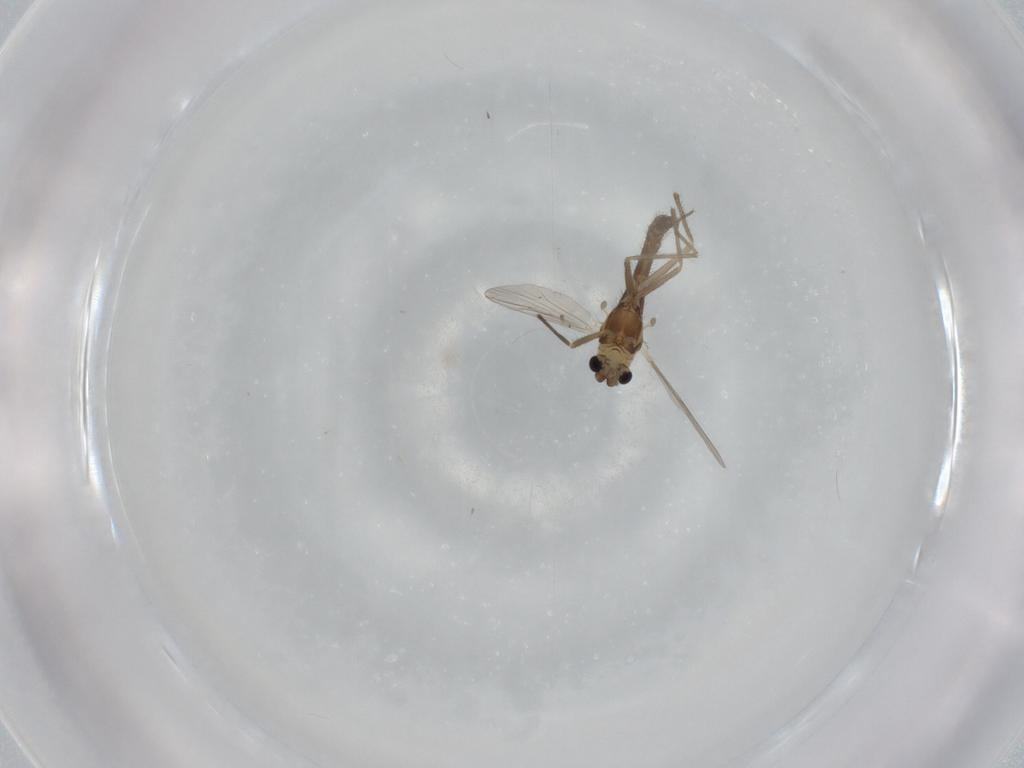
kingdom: Animalia
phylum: Arthropoda
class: Insecta
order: Diptera
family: Chironomidae
